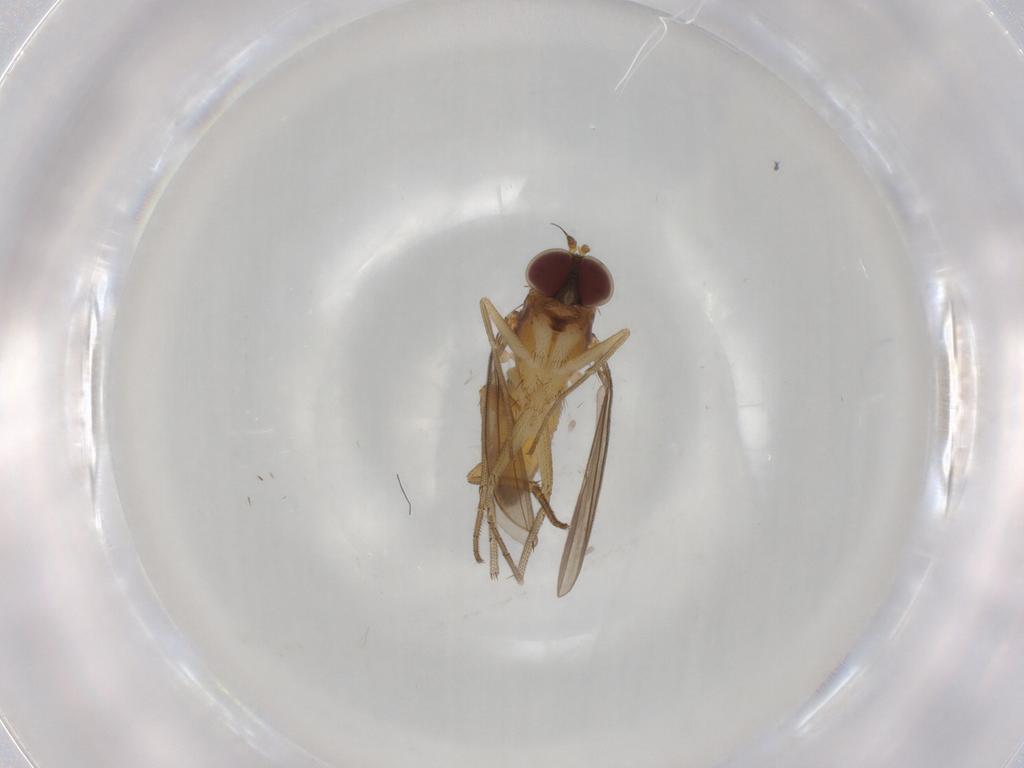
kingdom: Animalia
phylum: Arthropoda
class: Insecta
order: Diptera
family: Dolichopodidae
